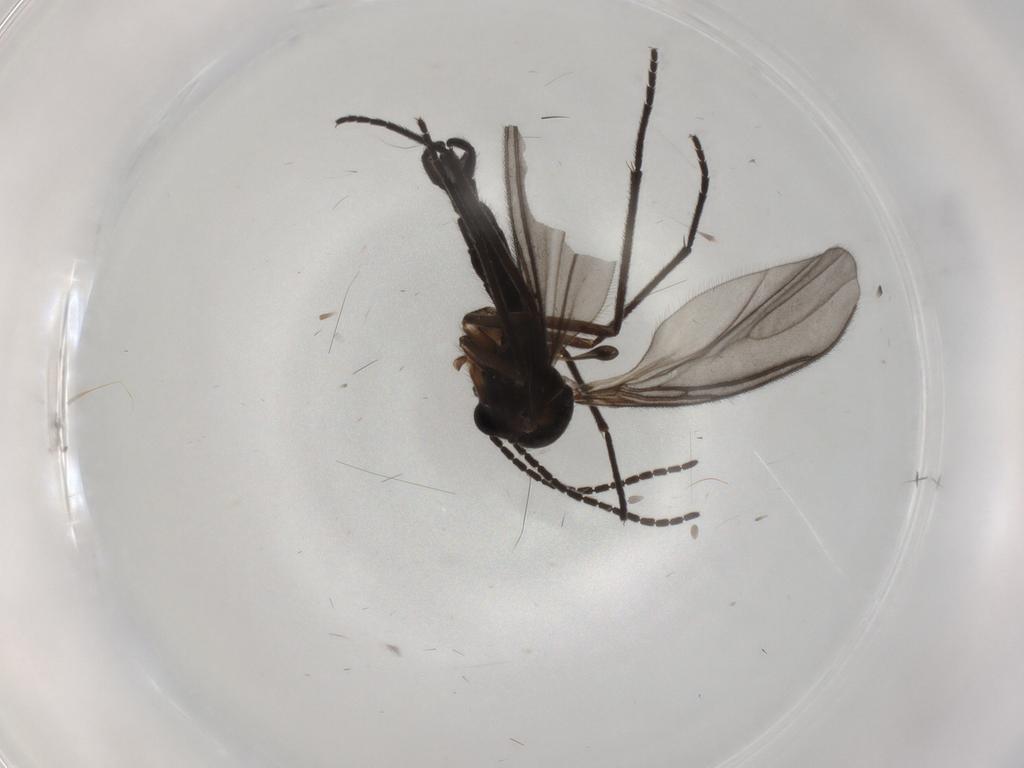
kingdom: Animalia
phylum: Arthropoda
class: Insecta
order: Diptera
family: Sciaridae
